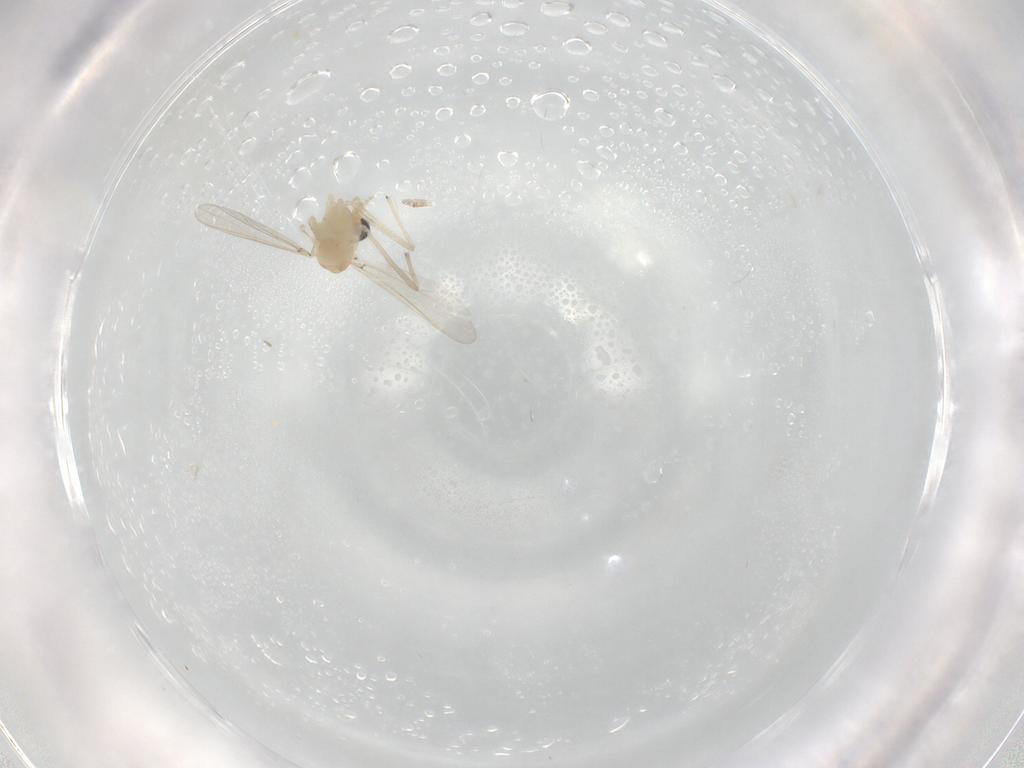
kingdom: Animalia
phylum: Arthropoda
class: Insecta
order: Diptera
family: Chironomidae
